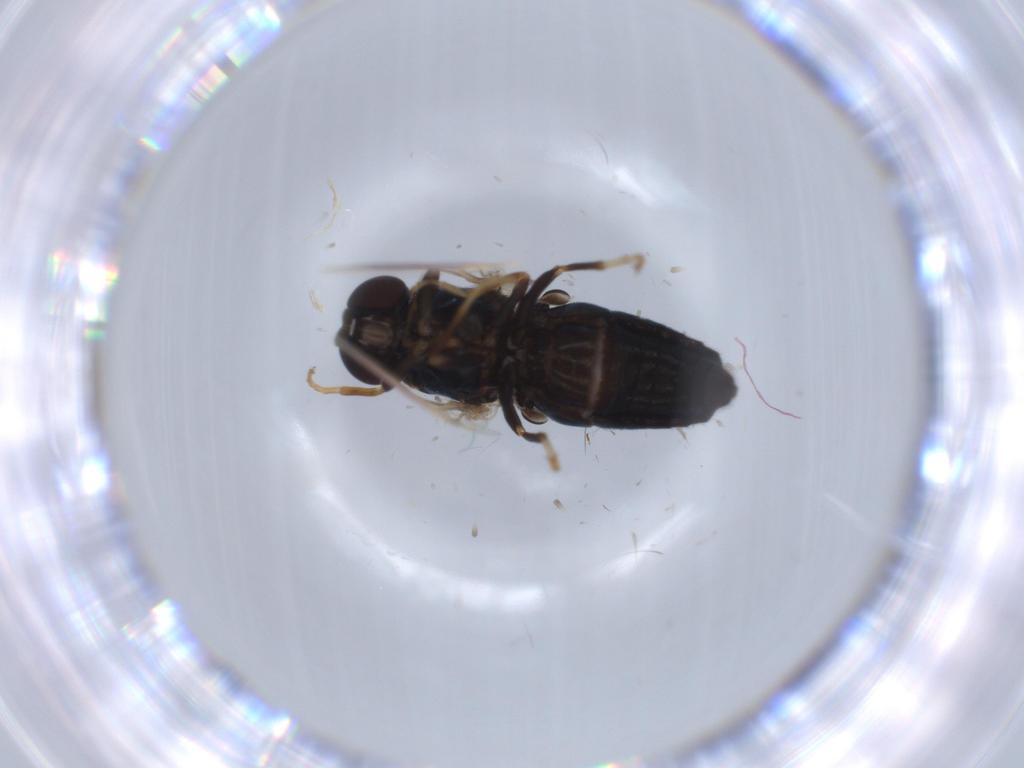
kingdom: Animalia
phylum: Arthropoda
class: Insecta
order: Diptera
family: Scenopinidae
